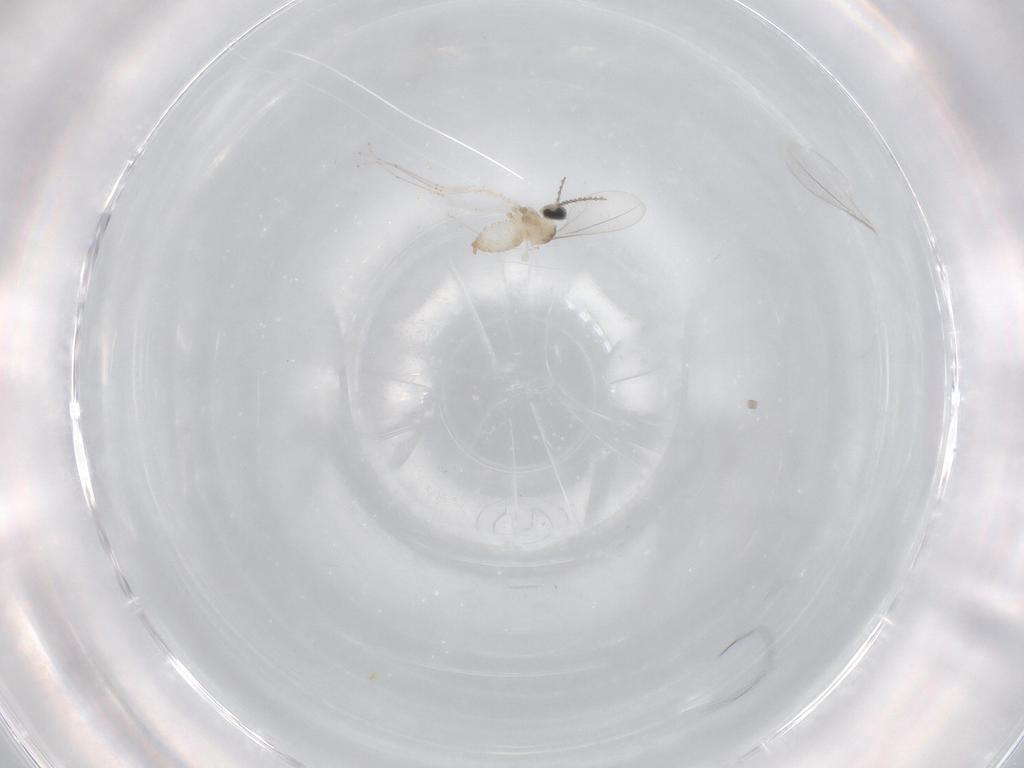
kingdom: Animalia
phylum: Arthropoda
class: Insecta
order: Diptera
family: Cecidomyiidae
